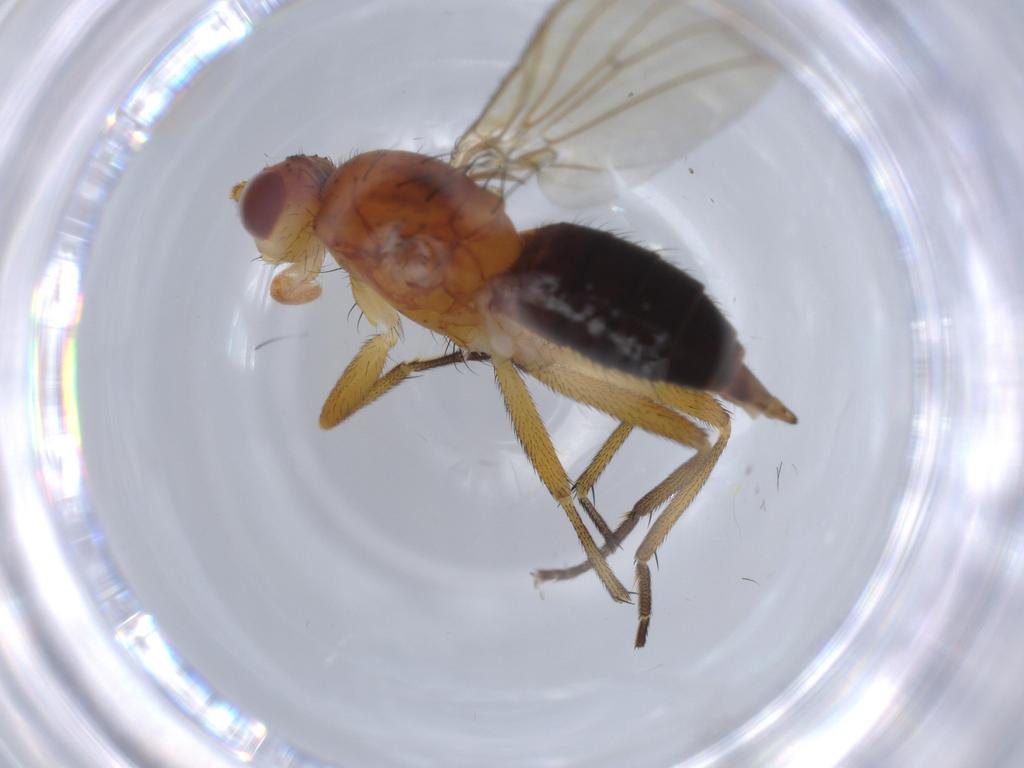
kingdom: Animalia
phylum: Arthropoda
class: Insecta
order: Diptera
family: Heleomyzidae
